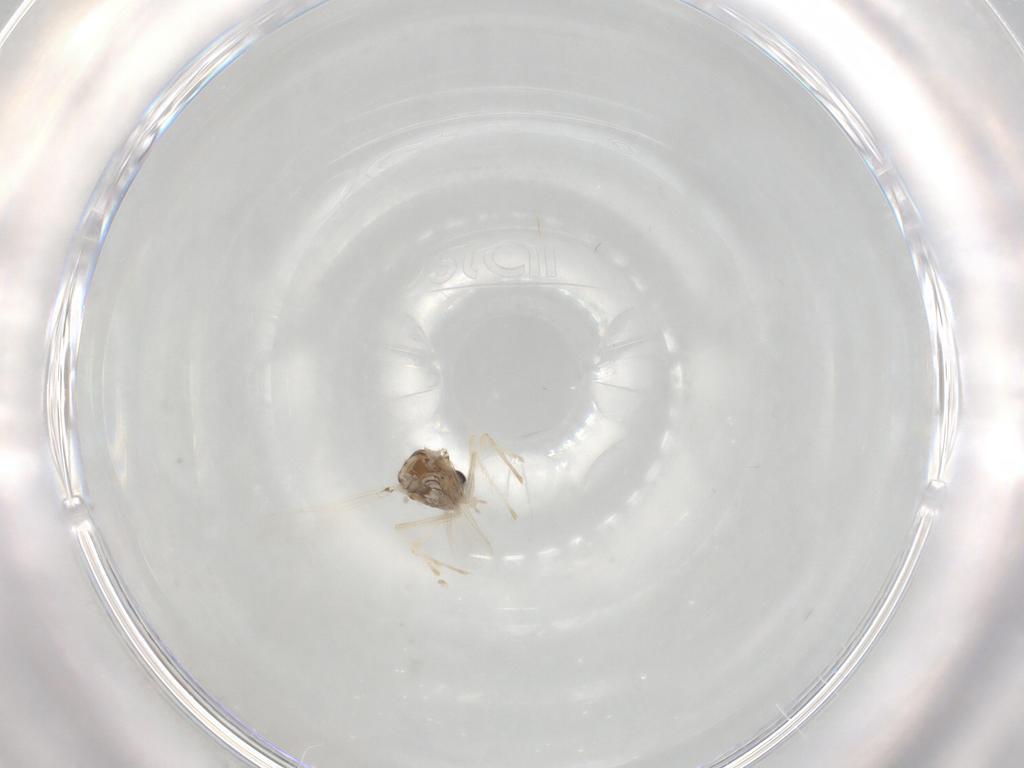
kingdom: Animalia
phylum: Arthropoda
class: Insecta
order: Diptera
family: Chironomidae
